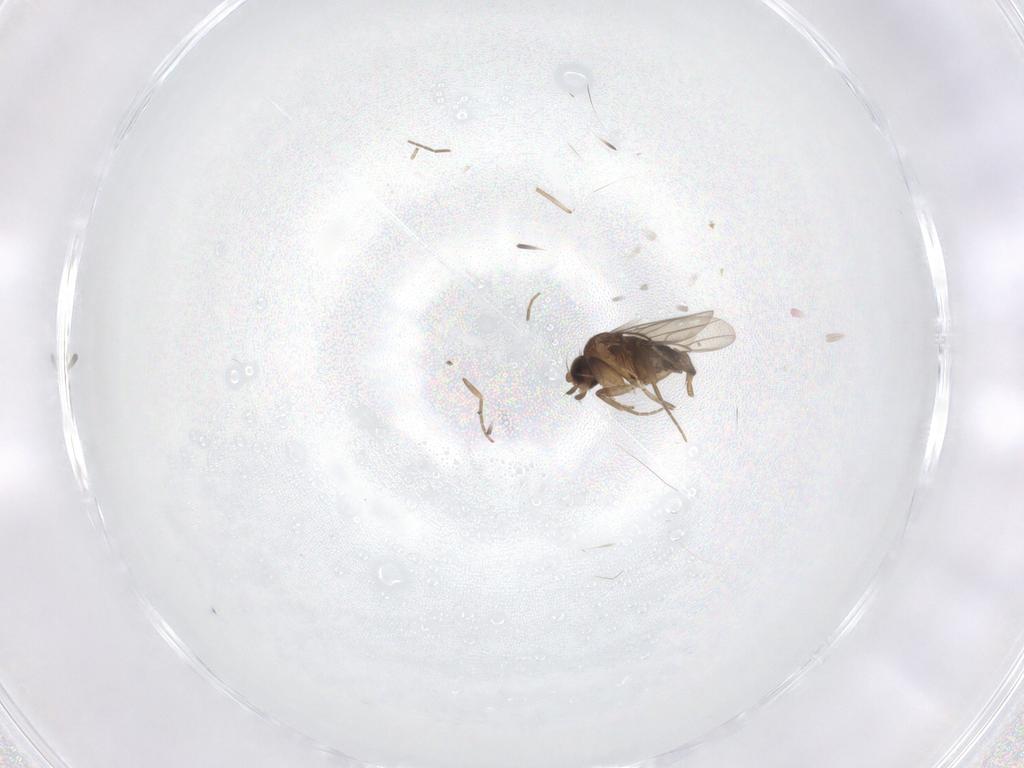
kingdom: Animalia
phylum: Arthropoda
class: Insecta
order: Diptera
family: Phoridae
